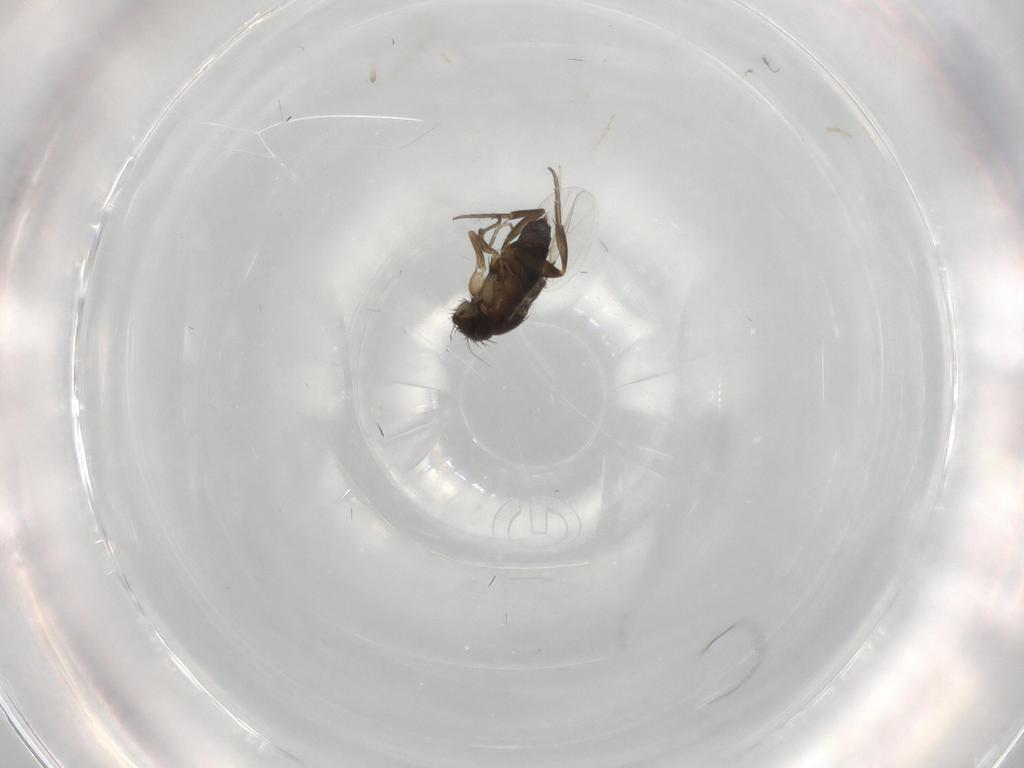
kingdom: Animalia
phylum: Arthropoda
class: Insecta
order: Diptera
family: Phoridae
